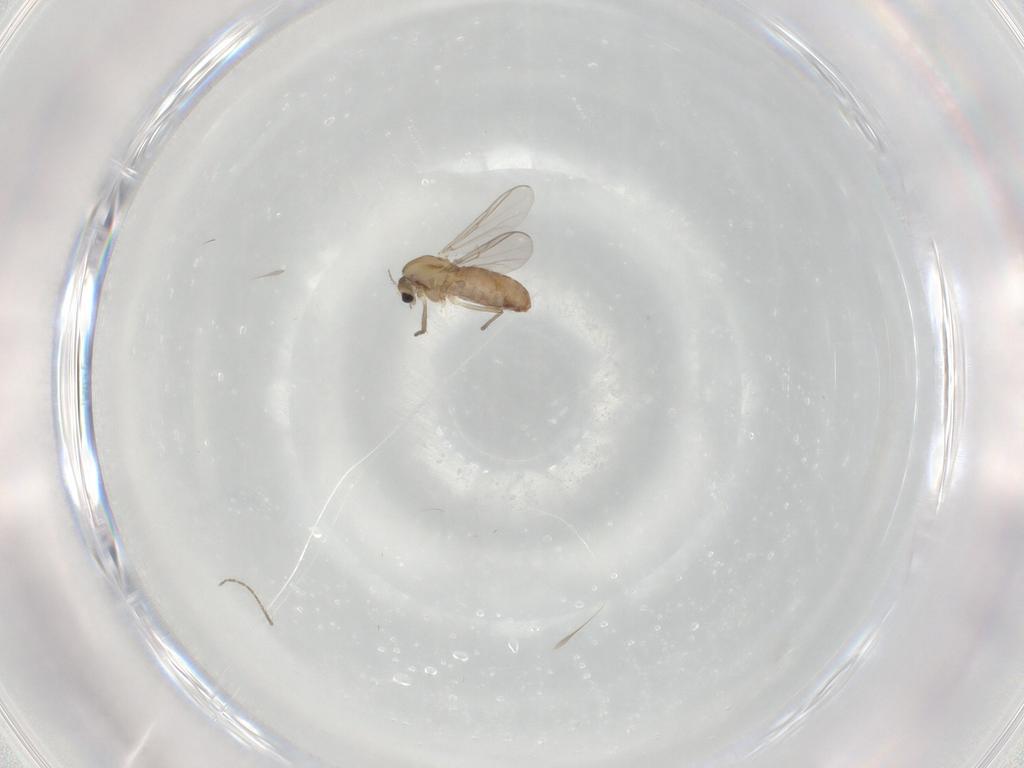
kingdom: Animalia
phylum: Arthropoda
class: Insecta
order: Diptera
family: Chironomidae
